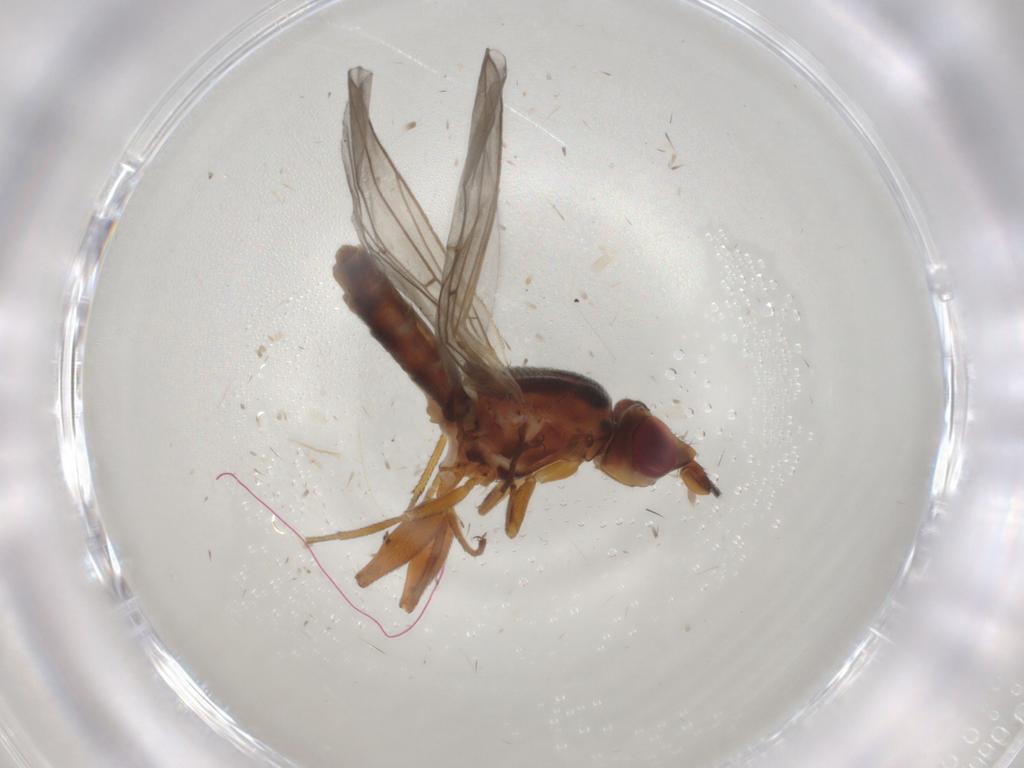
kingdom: Animalia
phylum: Arthropoda
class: Insecta
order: Diptera
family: Chloropidae
